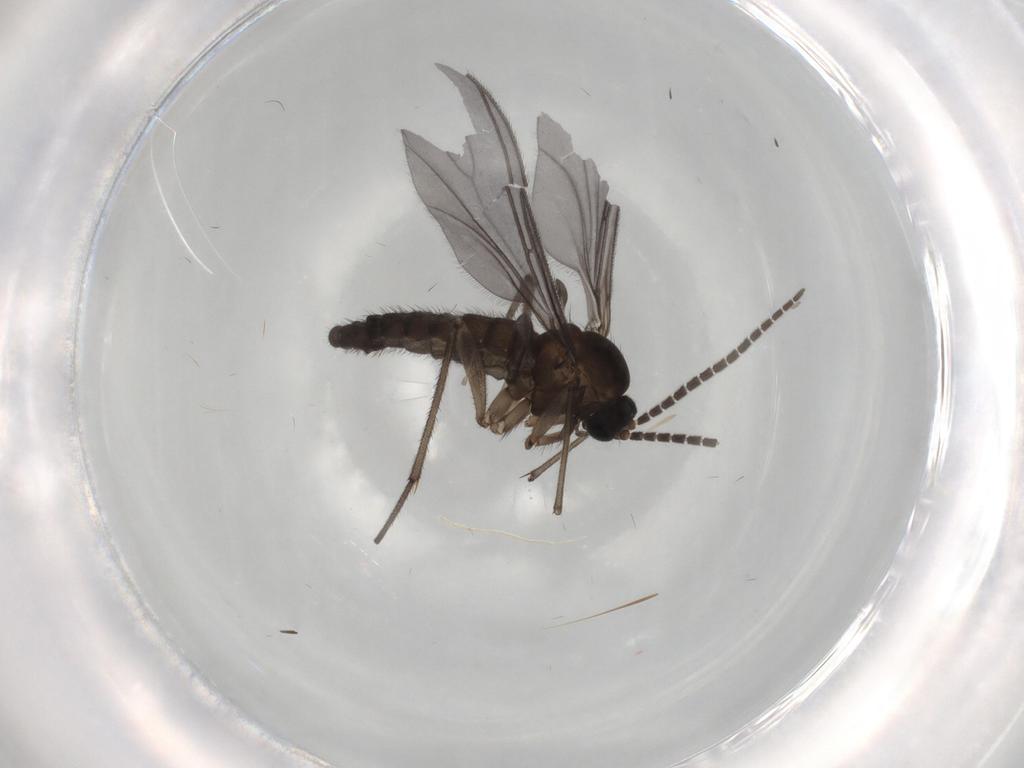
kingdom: Animalia
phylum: Arthropoda
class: Insecta
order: Diptera
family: Sciaridae
